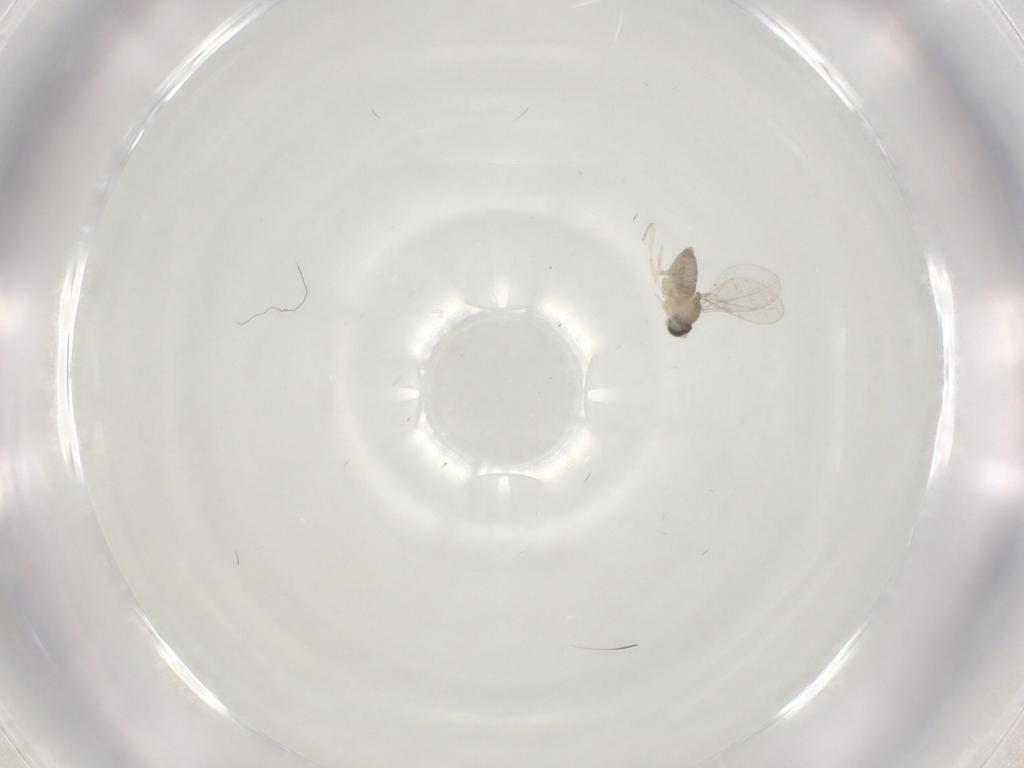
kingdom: Animalia
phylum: Arthropoda
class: Insecta
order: Diptera
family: Cecidomyiidae
